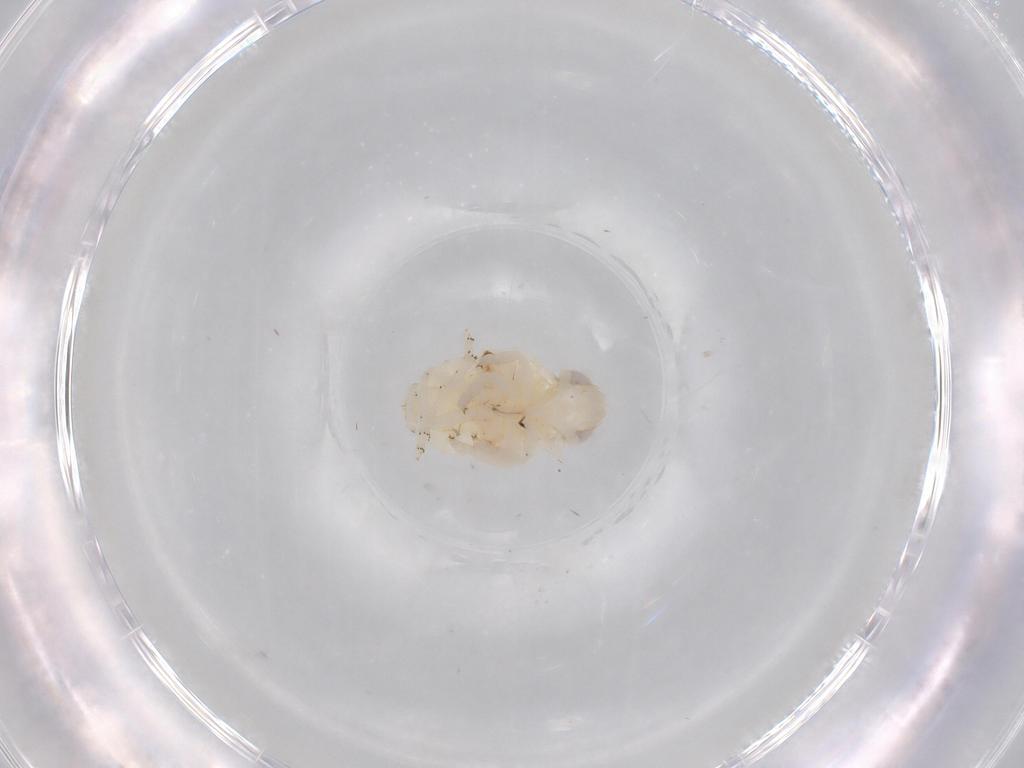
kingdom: Animalia
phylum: Arthropoda
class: Insecta
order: Hemiptera
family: Nogodinidae
